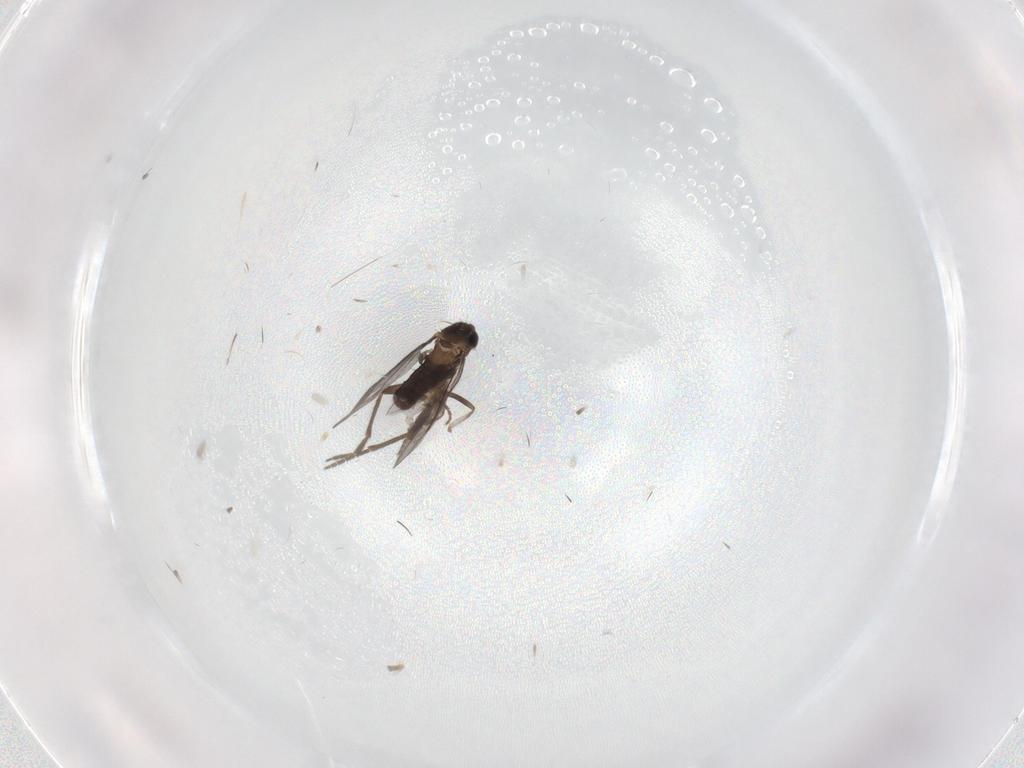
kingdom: Animalia
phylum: Arthropoda
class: Insecta
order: Diptera
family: Phoridae
